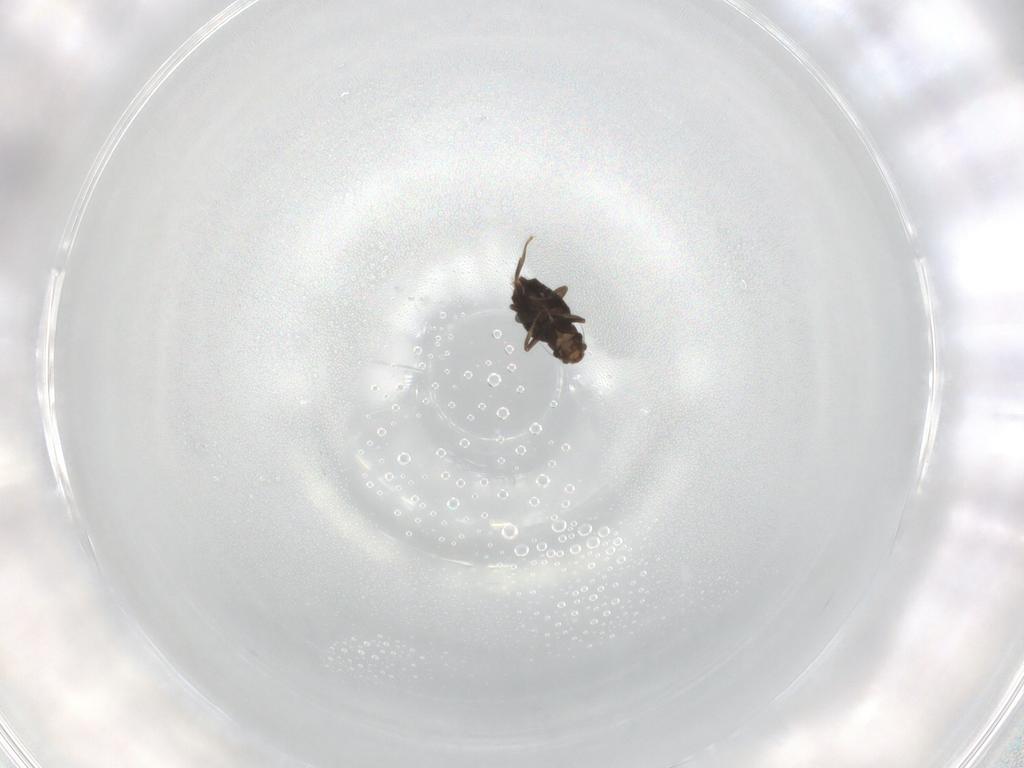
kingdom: Animalia
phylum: Arthropoda
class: Insecta
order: Diptera
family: Phoridae
